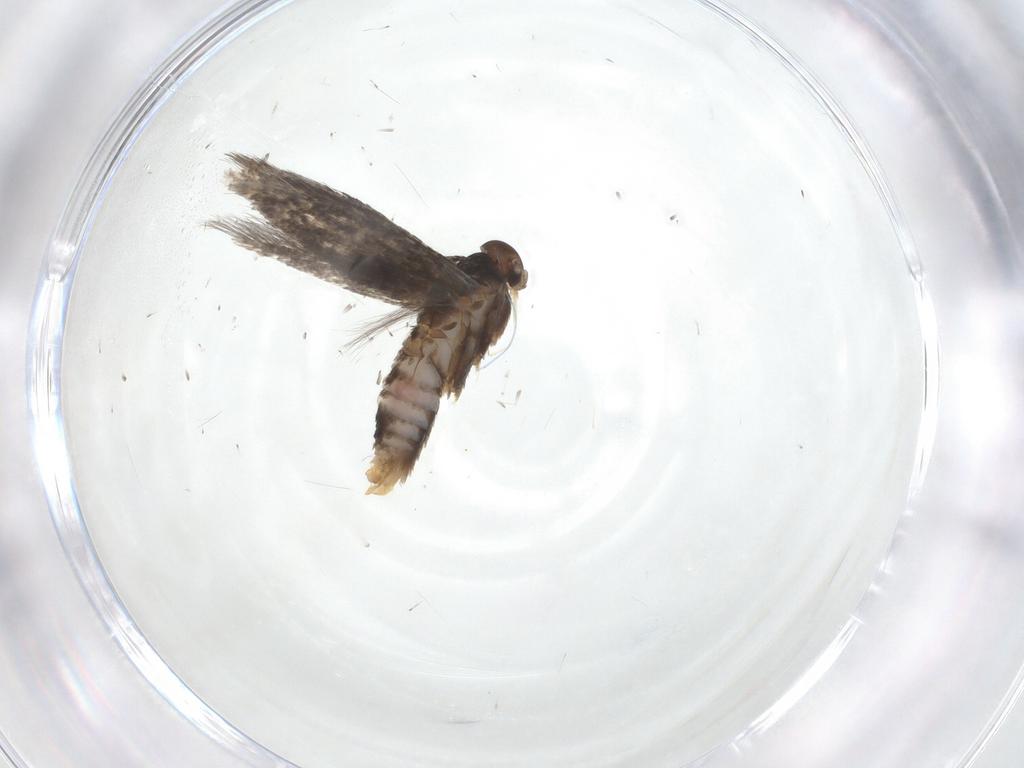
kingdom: Animalia
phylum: Arthropoda
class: Insecta
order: Lepidoptera
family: Elachistidae
